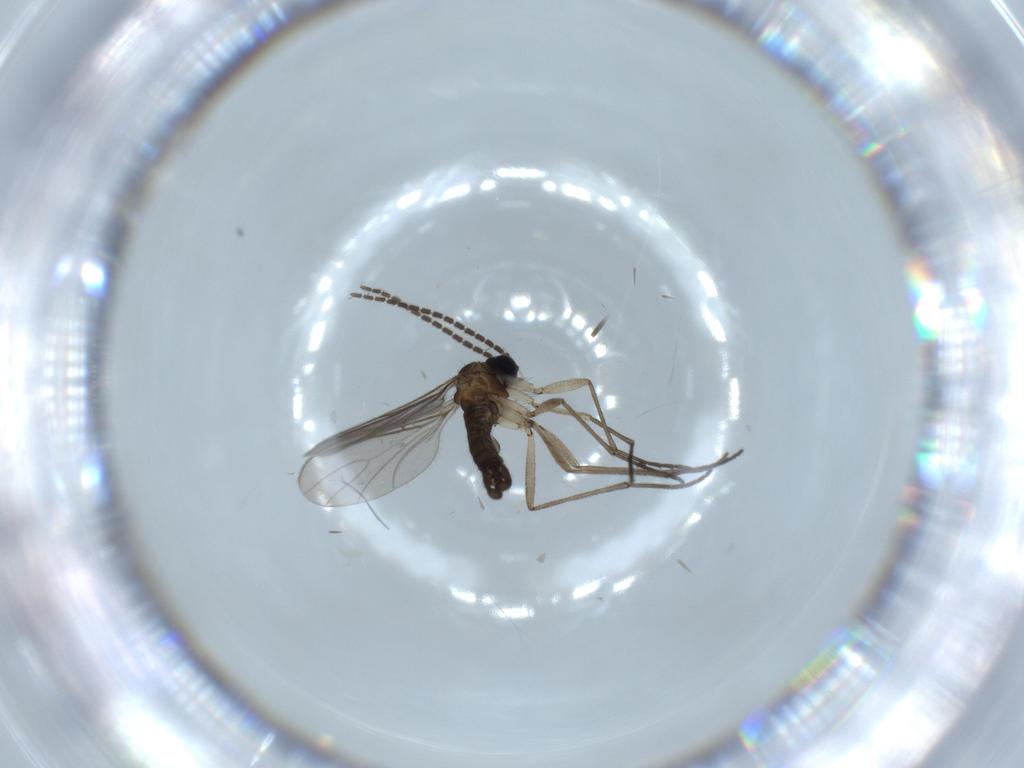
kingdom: Animalia
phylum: Arthropoda
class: Insecta
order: Diptera
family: Sciaridae
